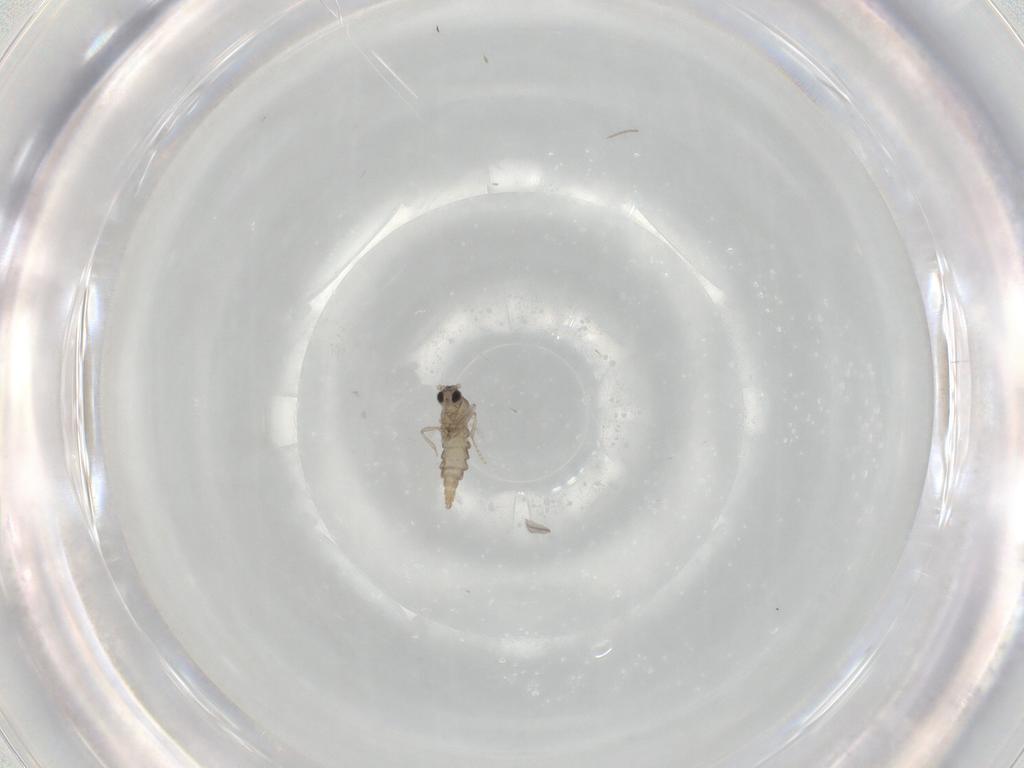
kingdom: Animalia
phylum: Arthropoda
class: Insecta
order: Diptera
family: Cecidomyiidae
